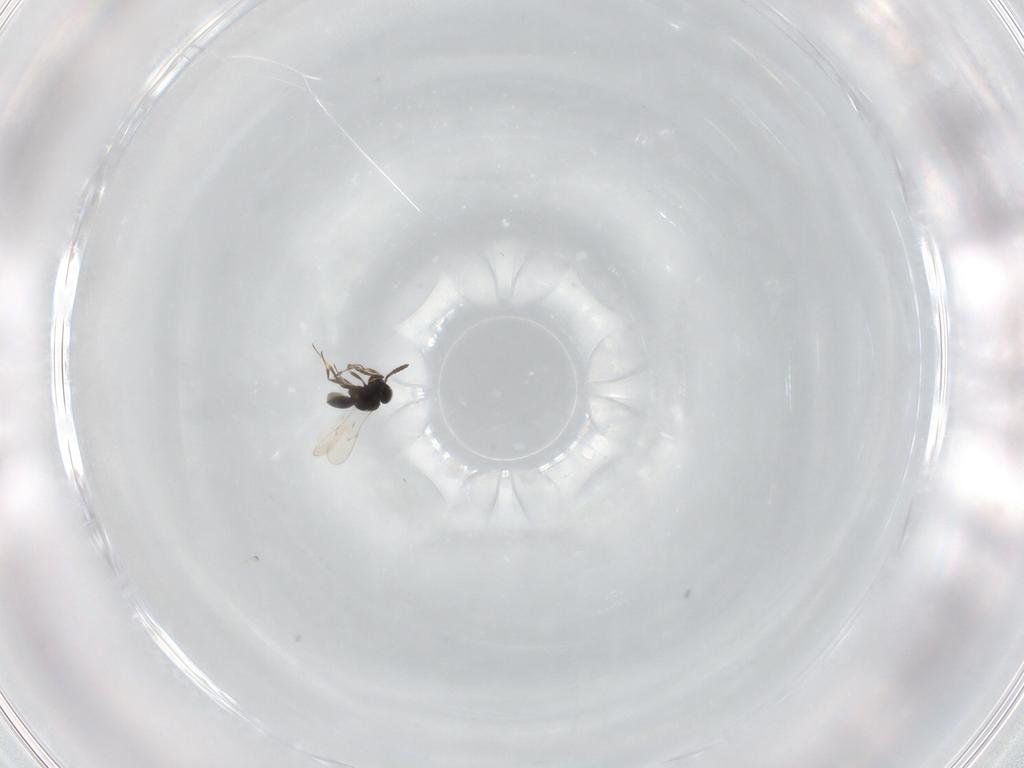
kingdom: Animalia
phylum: Arthropoda
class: Insecta
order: Hymenoptera
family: Scelionidae
